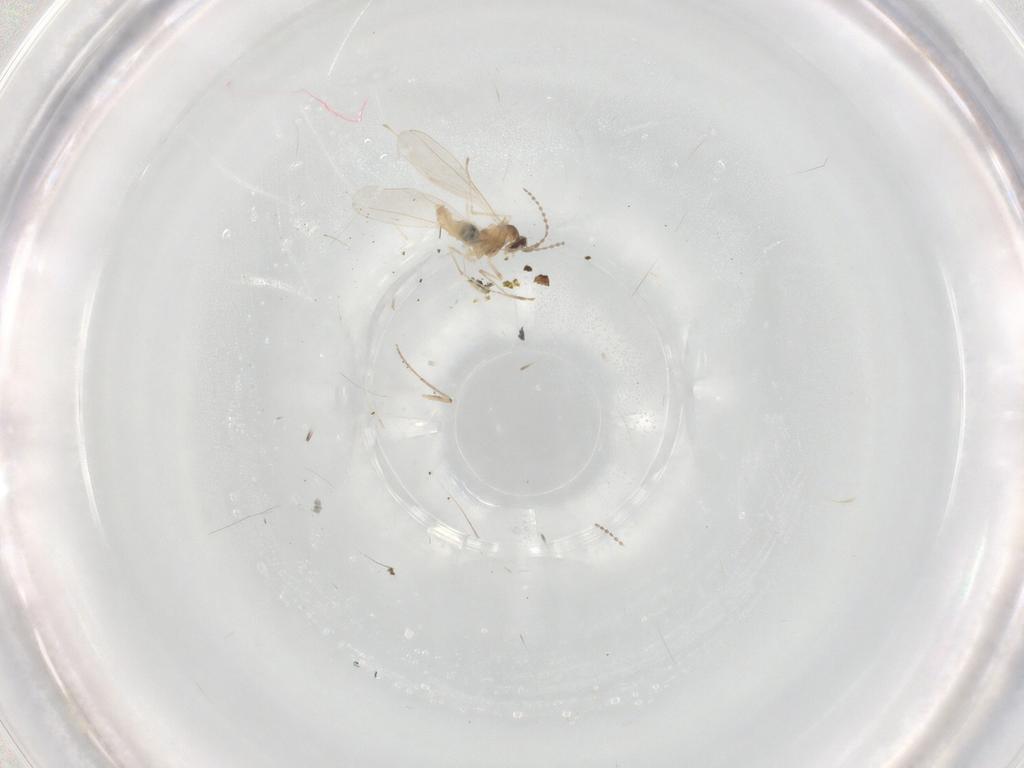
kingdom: Animalia
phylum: Arthropoda
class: Insecta
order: Diptera
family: Cecidomyiidae
